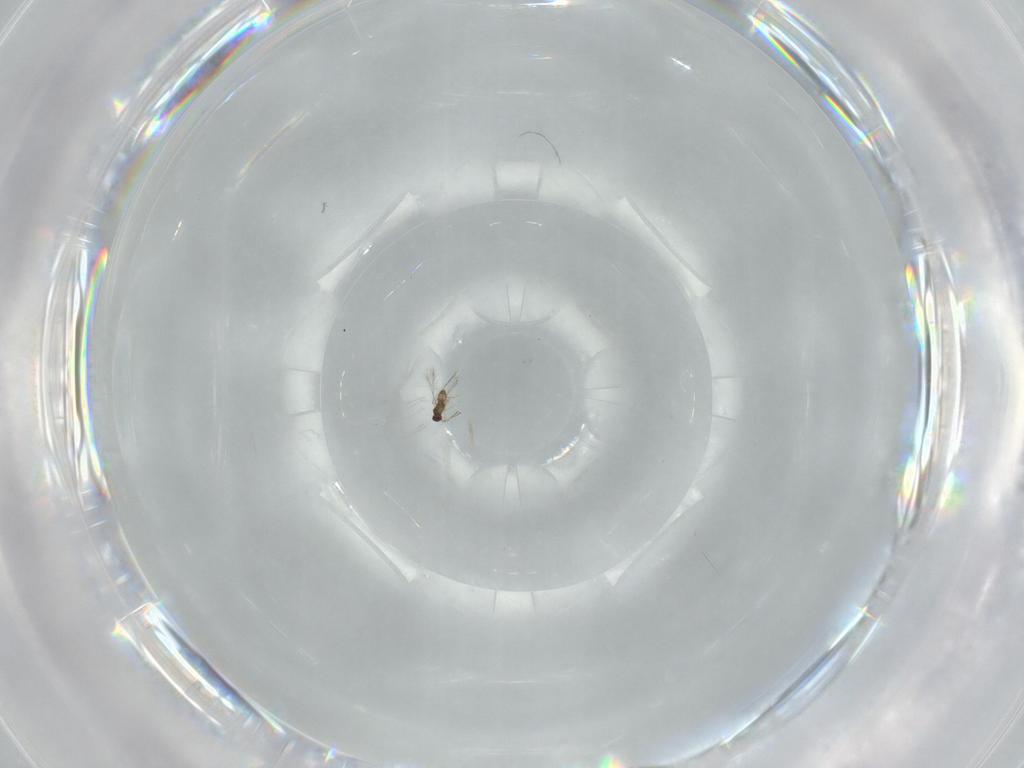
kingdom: Animalia
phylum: Arthropoda
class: Insecta
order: Hymenoptera
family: Mymaridae
